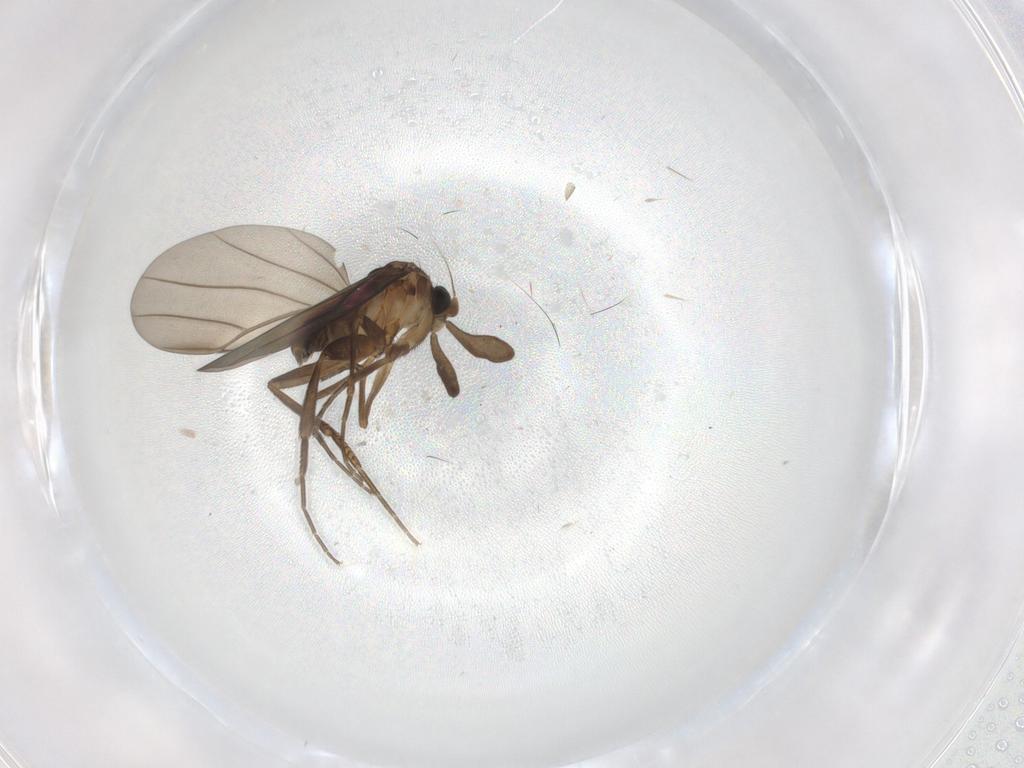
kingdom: Animalia
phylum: Arthropoda
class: Insecta
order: Diptera
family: Phoridae
